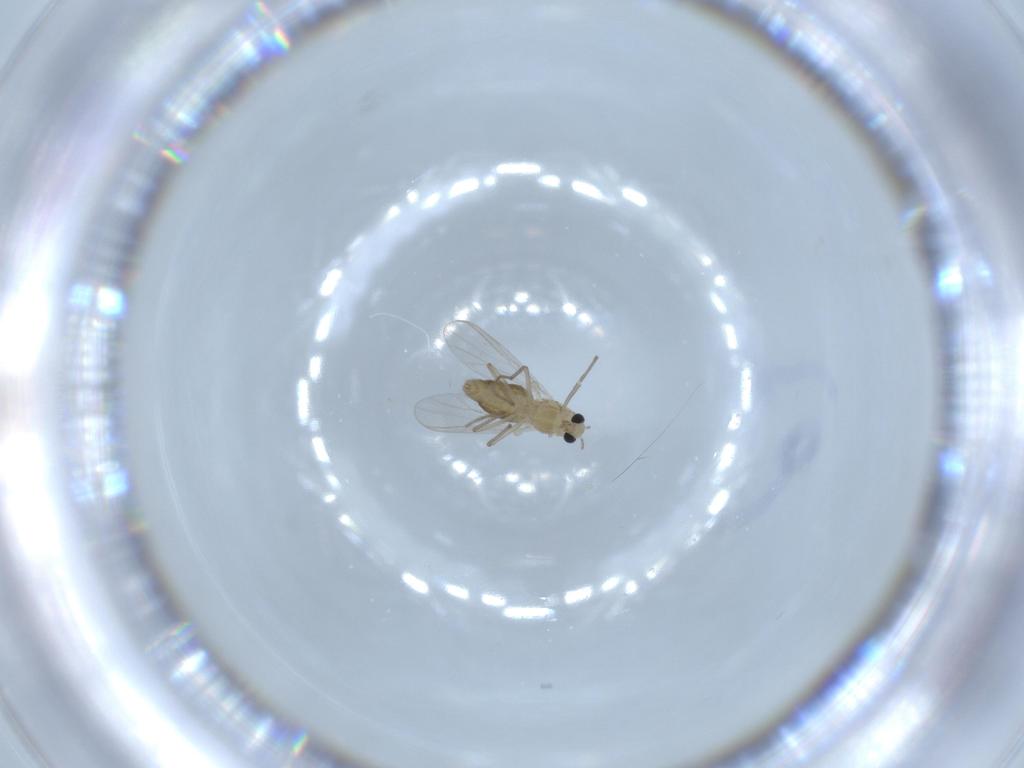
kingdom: Animalia
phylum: Arthropoda
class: Insecta
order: Diptera
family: Chironomidae
